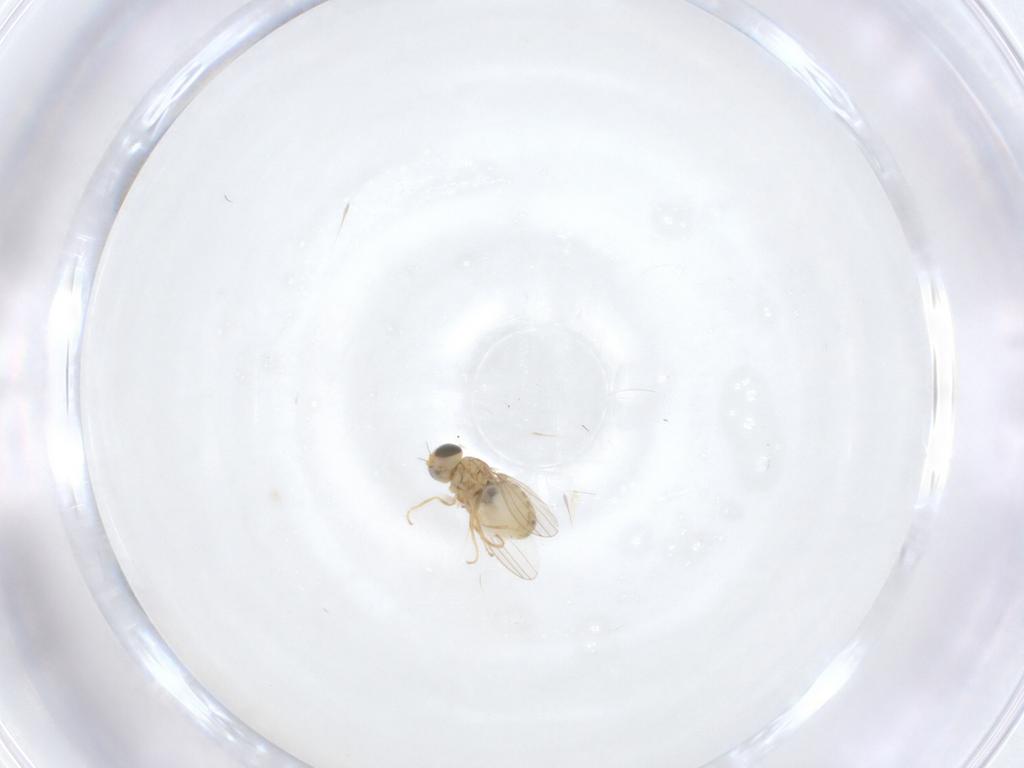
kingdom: Animalia
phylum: Arthropoda
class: Insecta
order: Diptera
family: Chyromyidae
